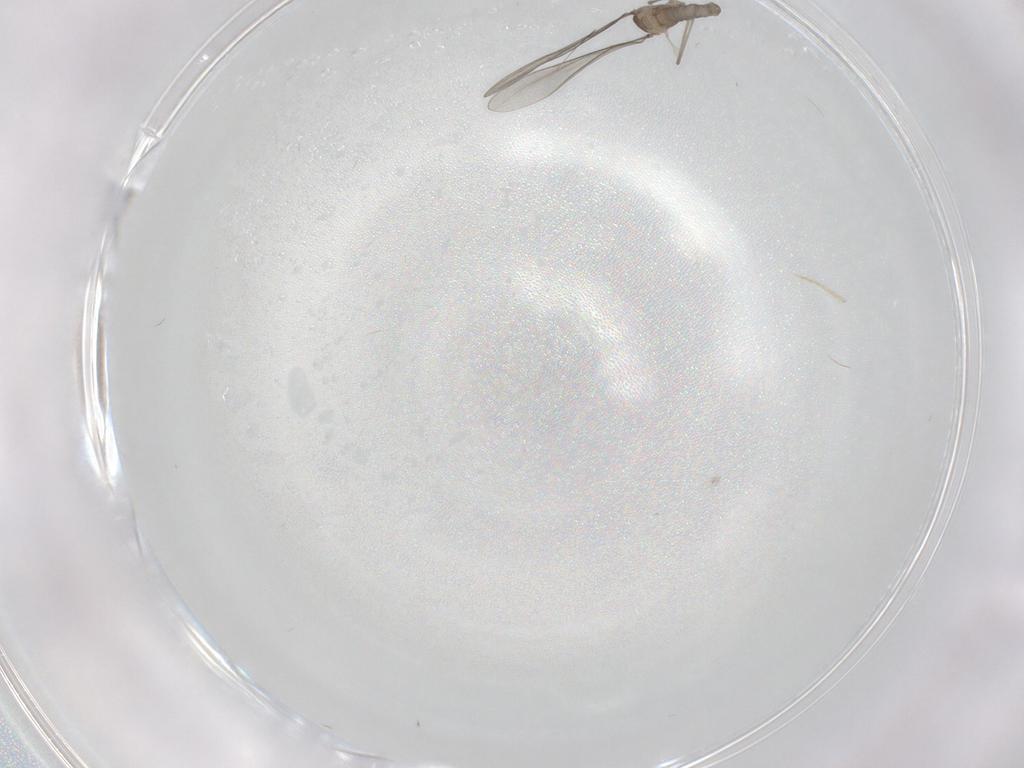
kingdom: Animalia
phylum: Arthropoda
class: Insecta
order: Diptera
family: Cecidomyiidae
